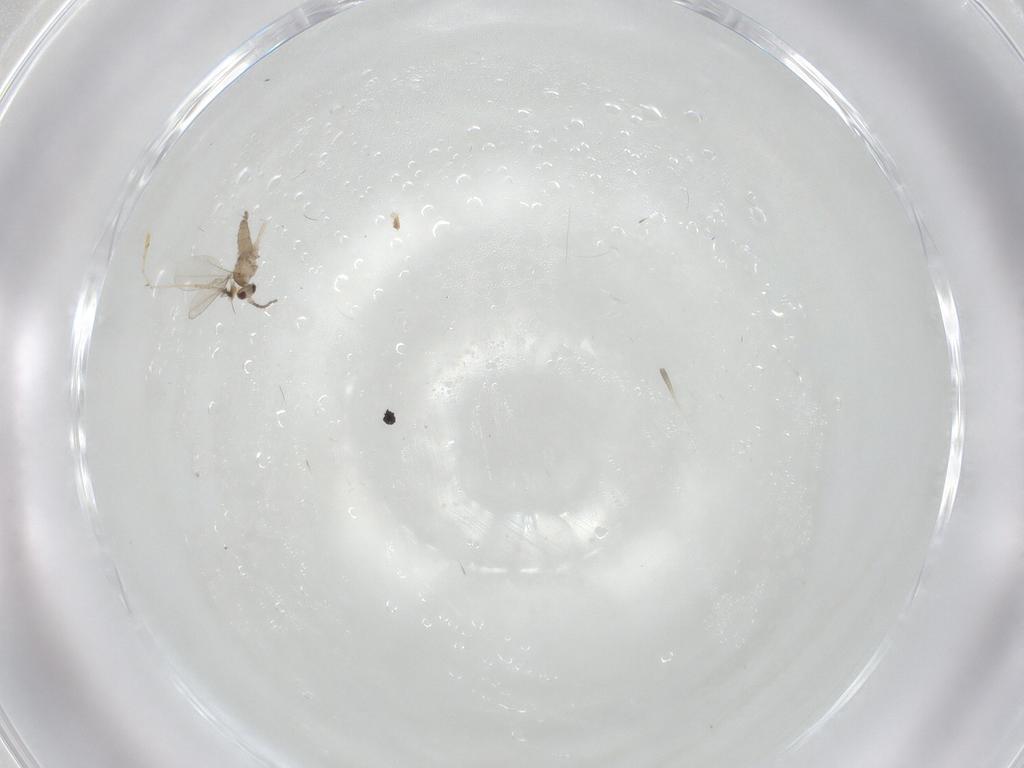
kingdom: Animalia
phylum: Arthropoda
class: Insecta
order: Diptera
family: Cecidomyiidae
